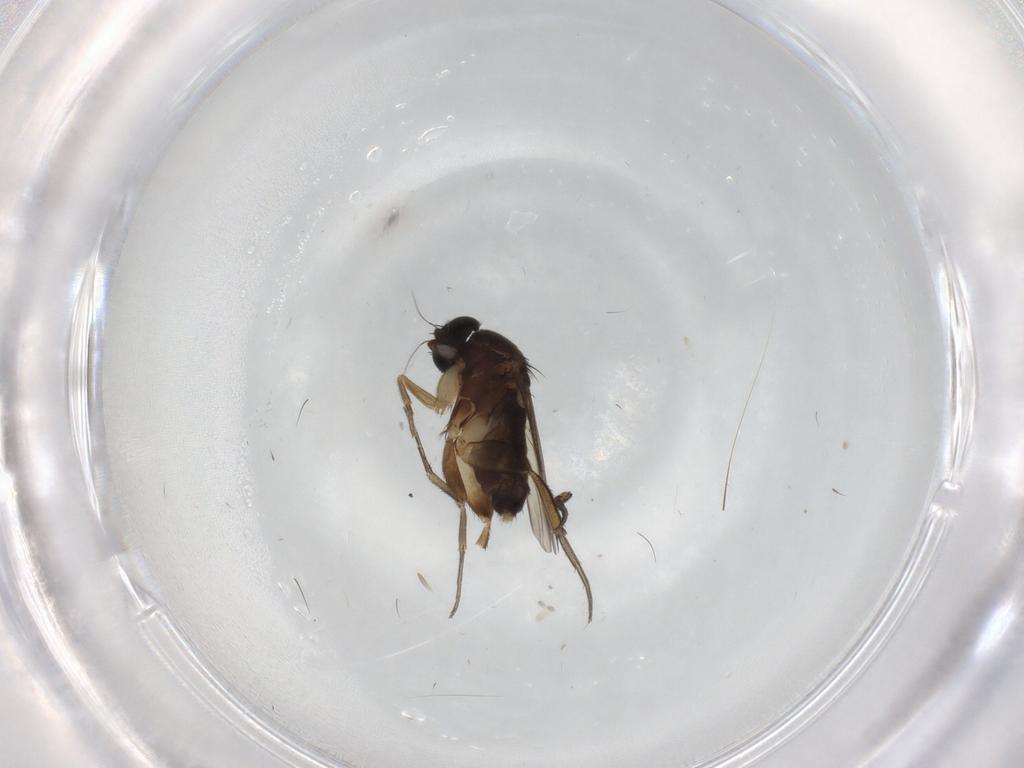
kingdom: Animalia
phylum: Arthropoda
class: Insecta
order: Diptera
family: Phoridae
